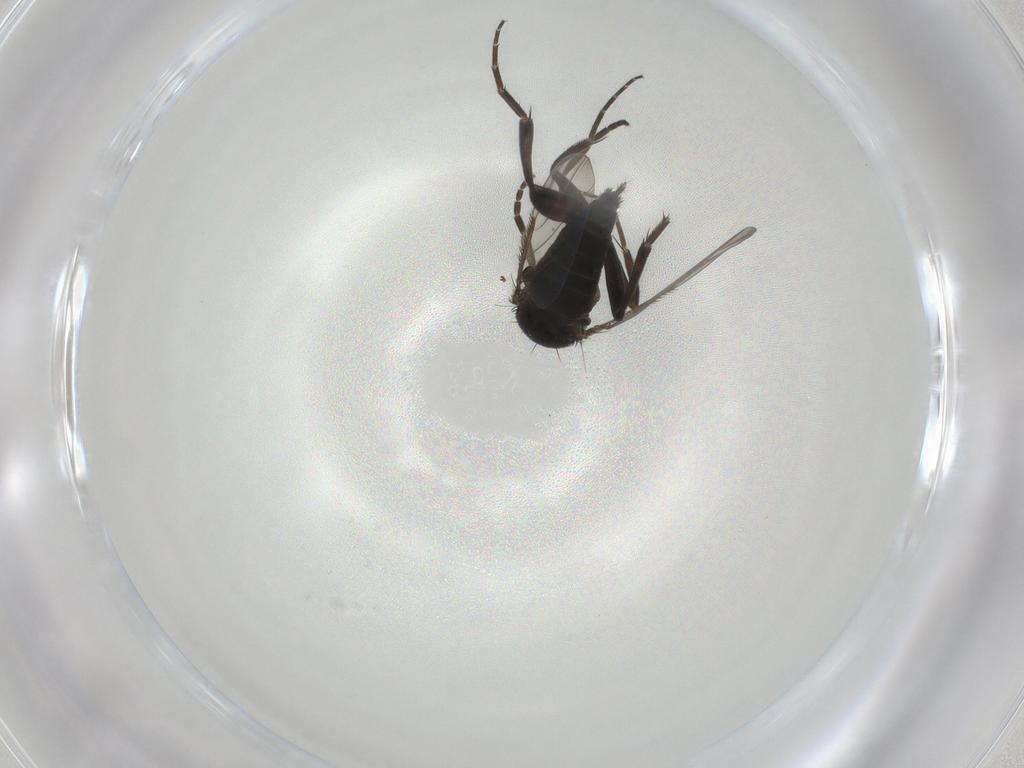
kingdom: Animalia
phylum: Arthropoda
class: Insecta
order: Diptera
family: Phoridae
